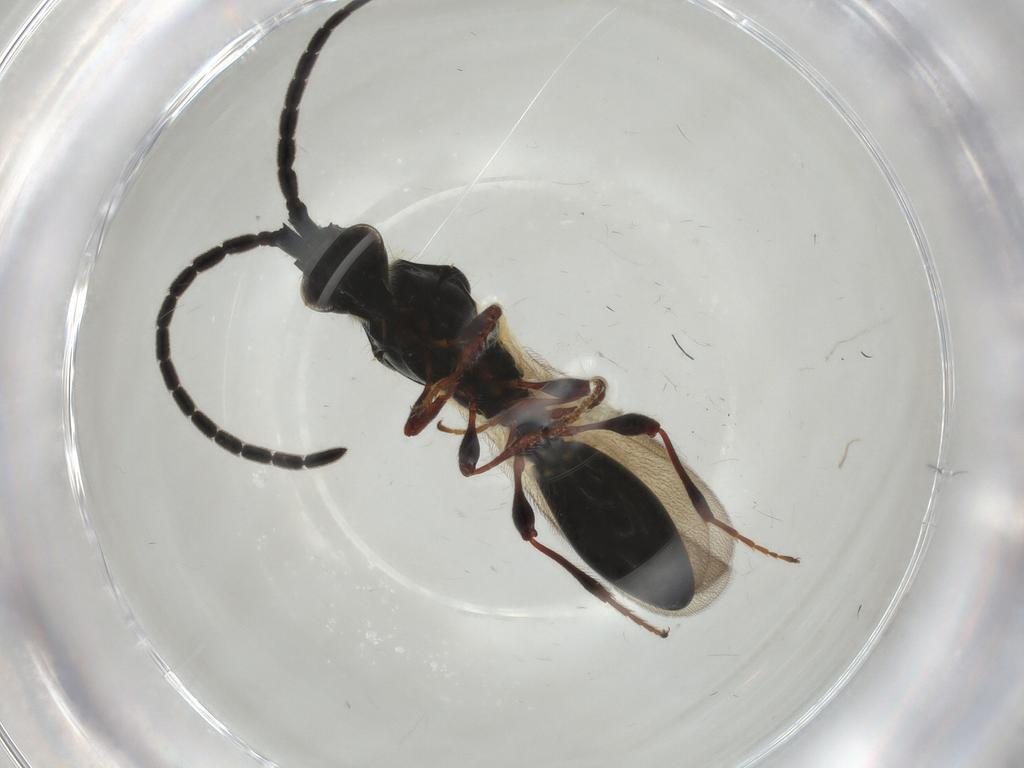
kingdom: Animalia
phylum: Arthropoda
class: Insecta
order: Hymenoptera
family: Diapriidae
